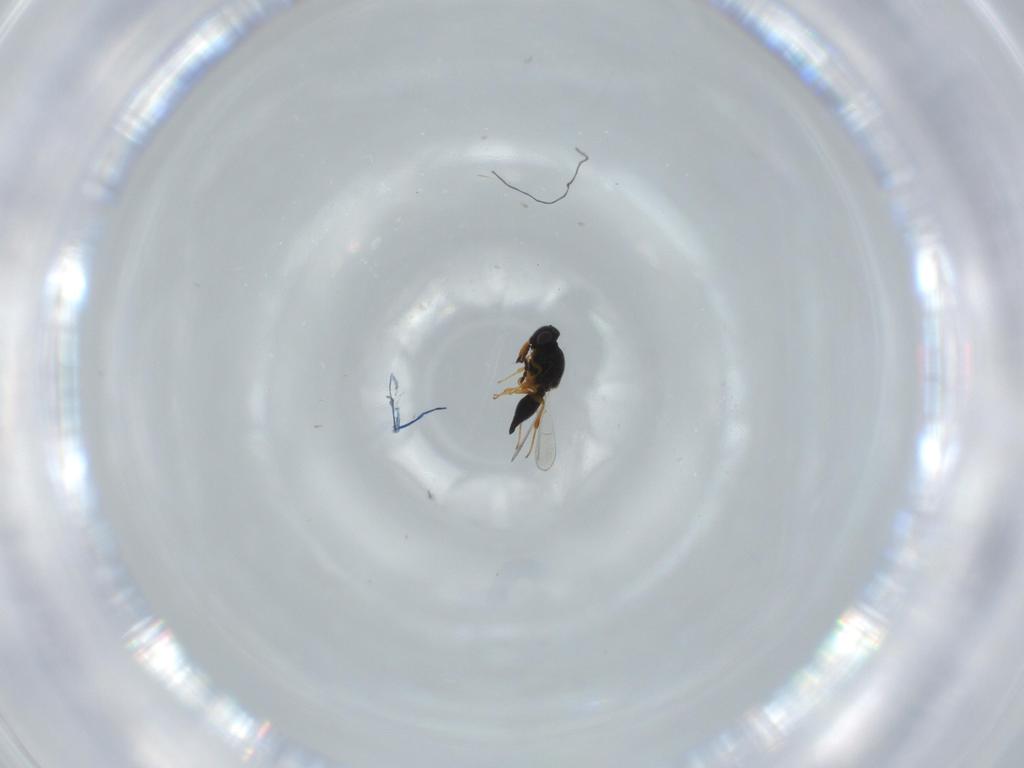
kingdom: Animalia
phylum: Arthropoda
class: Insecta
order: Hymenoptera
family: Platygastridae
